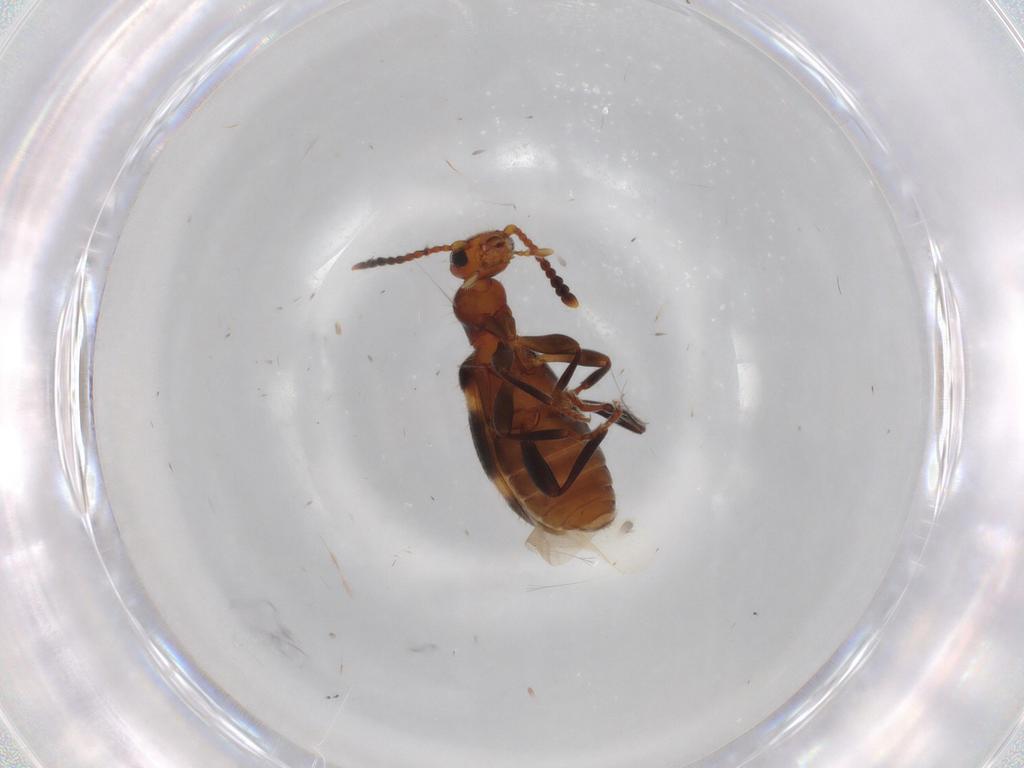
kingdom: Animalia
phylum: Arthropoda
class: Insecta
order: Coleoptera
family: Anthicidae
